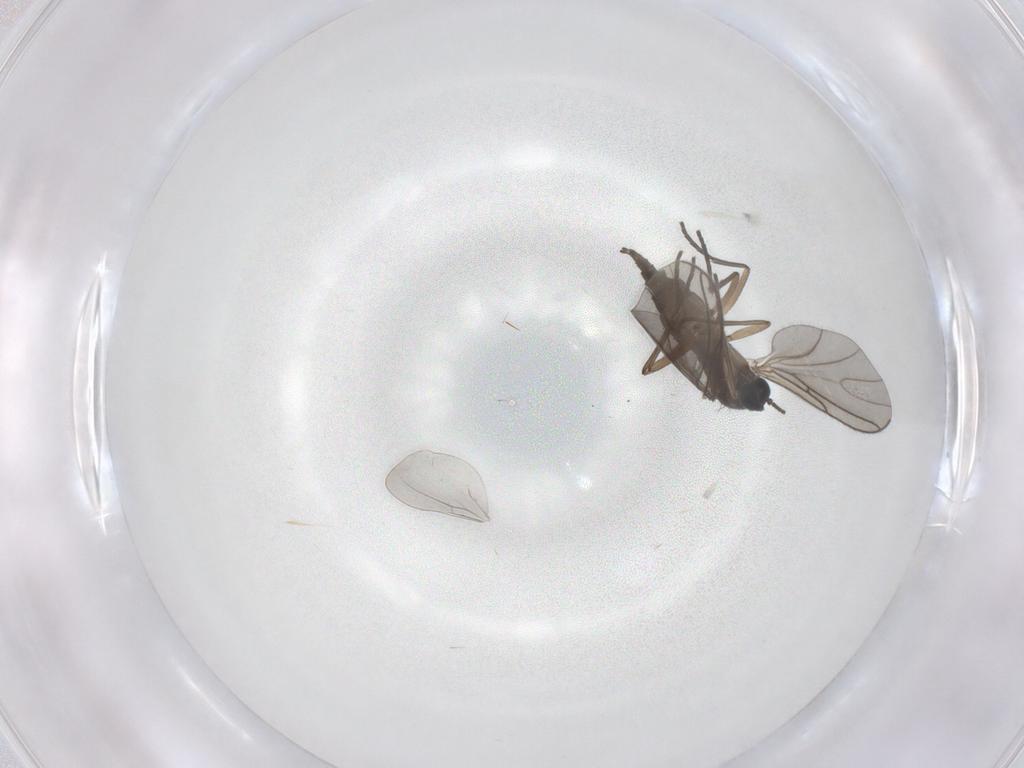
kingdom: Animalia
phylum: Arthropoda
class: Insecta
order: Diptera
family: Sciaridae
